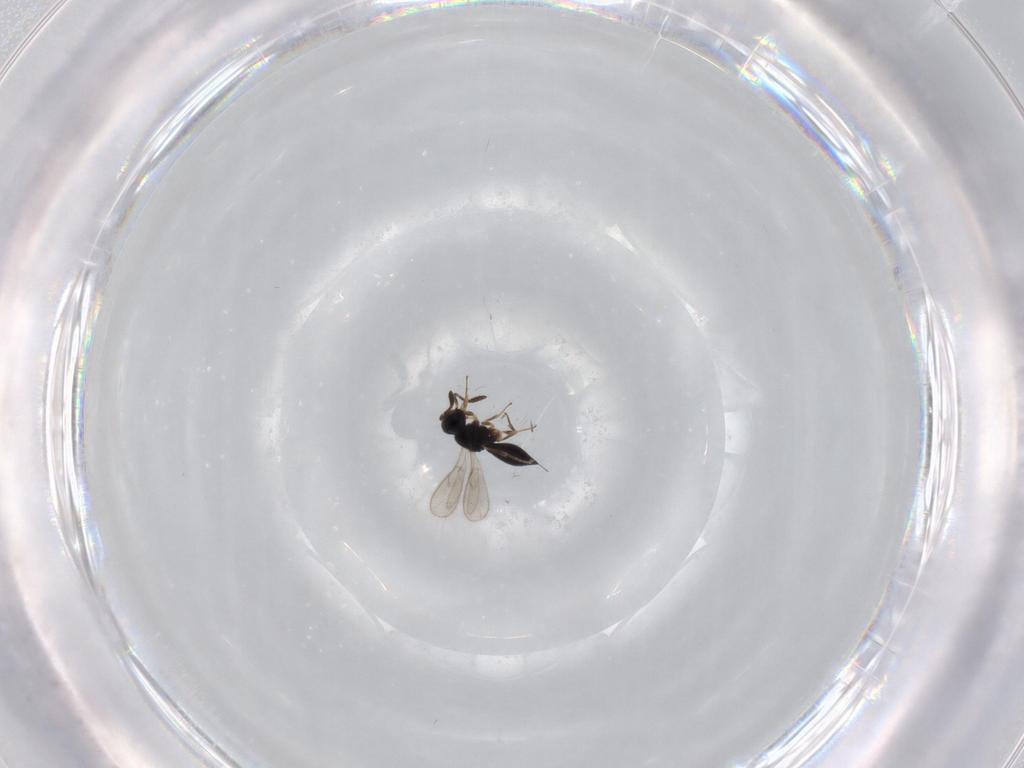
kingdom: Animalia
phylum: Arthropoda
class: Insecta
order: Hymenoptera
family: Scelionidae
